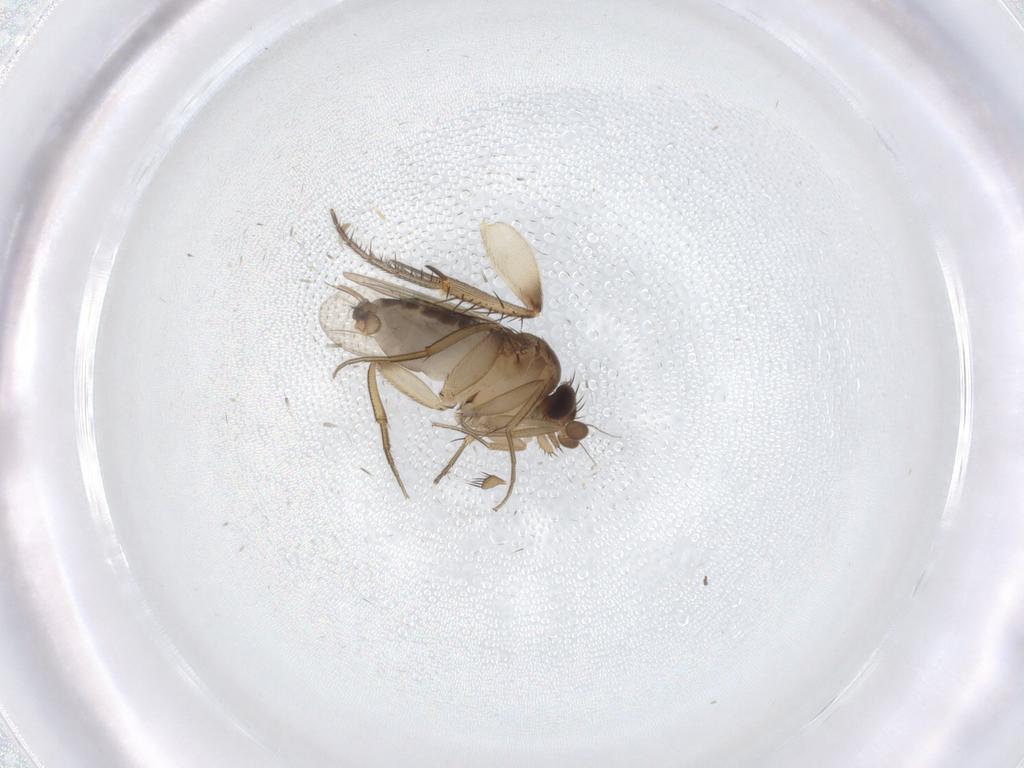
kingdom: Animalia
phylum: Arthropoda
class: Insecta
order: Diptera
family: Phoridae
